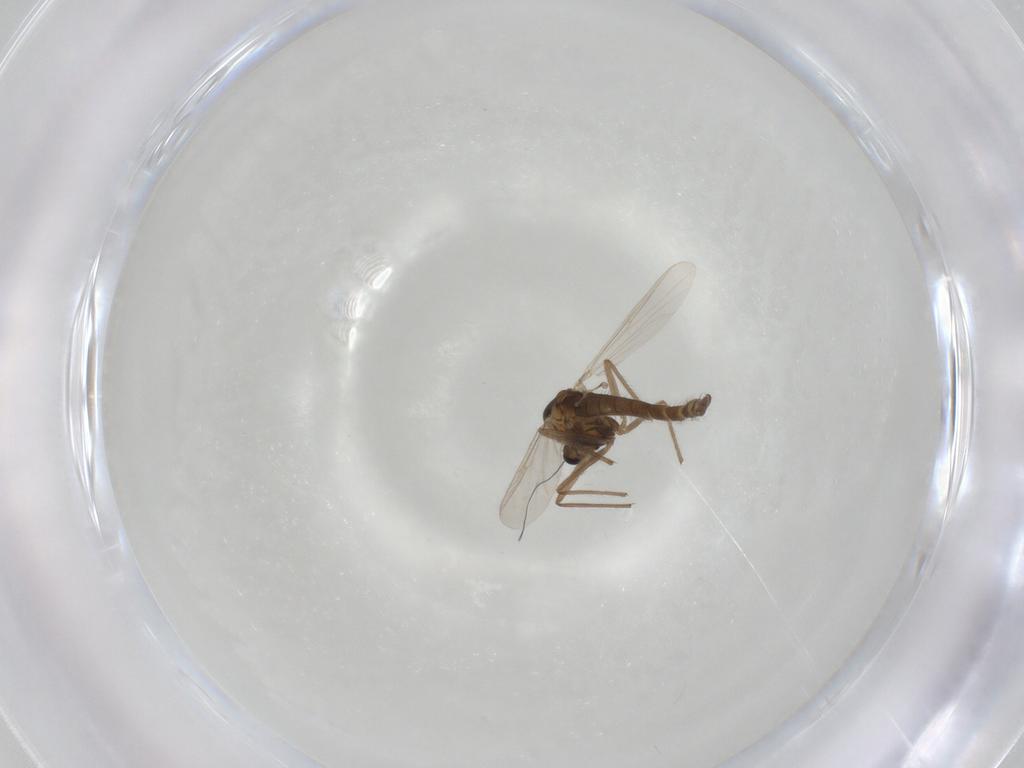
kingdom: Animalia
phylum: Arthropoda
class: Insecta
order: Diptera
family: Chironomidae
